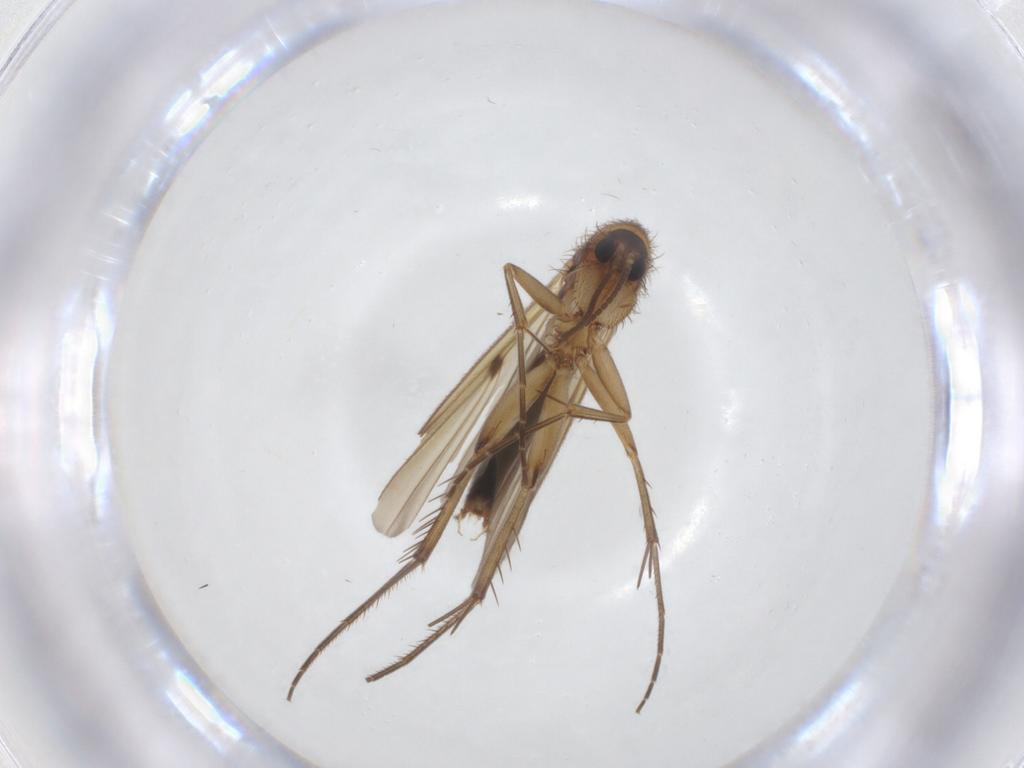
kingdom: Animalia
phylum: Arthropoda
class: Insecta
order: Diptera
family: Mycetophilidae
